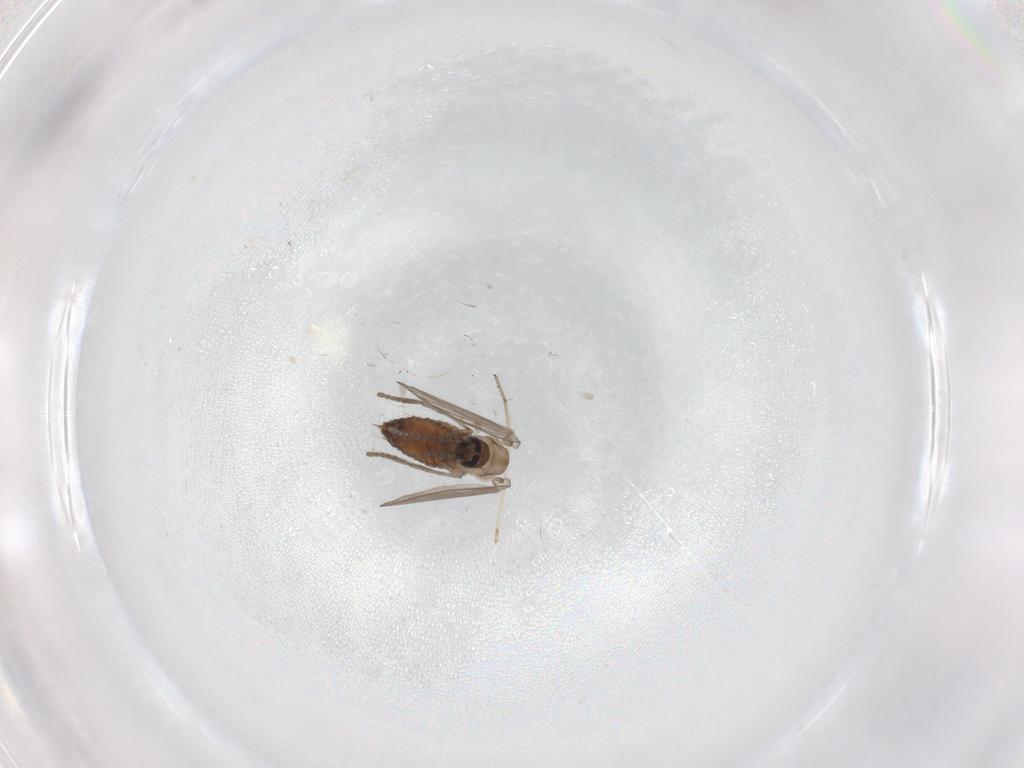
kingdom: Animalia
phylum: Arthropoda
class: Insecta
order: Diptera
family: Psychodidae
